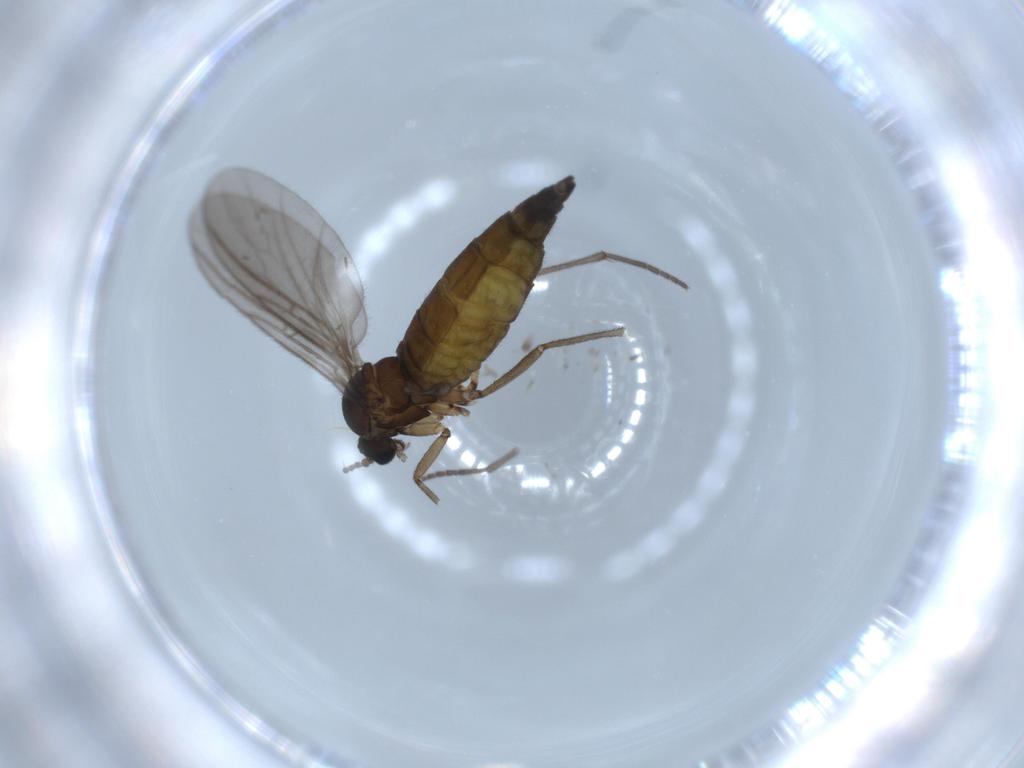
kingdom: Animalia
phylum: Arthropoda
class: Insecta
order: Diptera
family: Sciaridae
